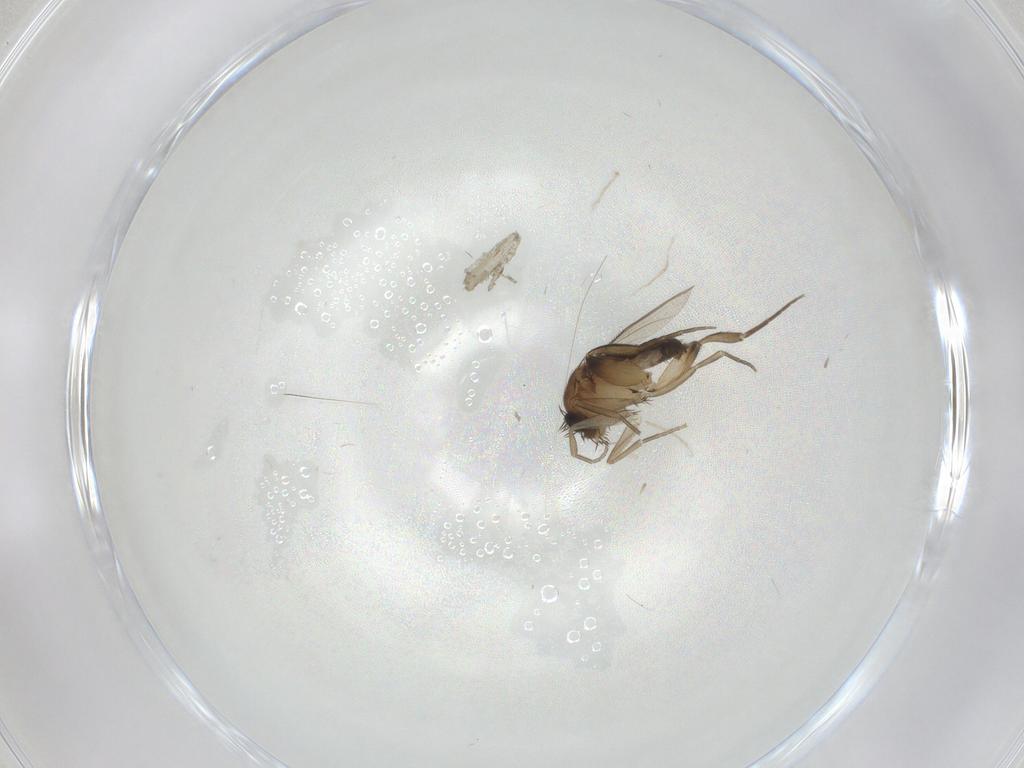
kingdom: Animalia
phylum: Arthropoda
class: Insecta
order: Diptera
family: Phoridae
